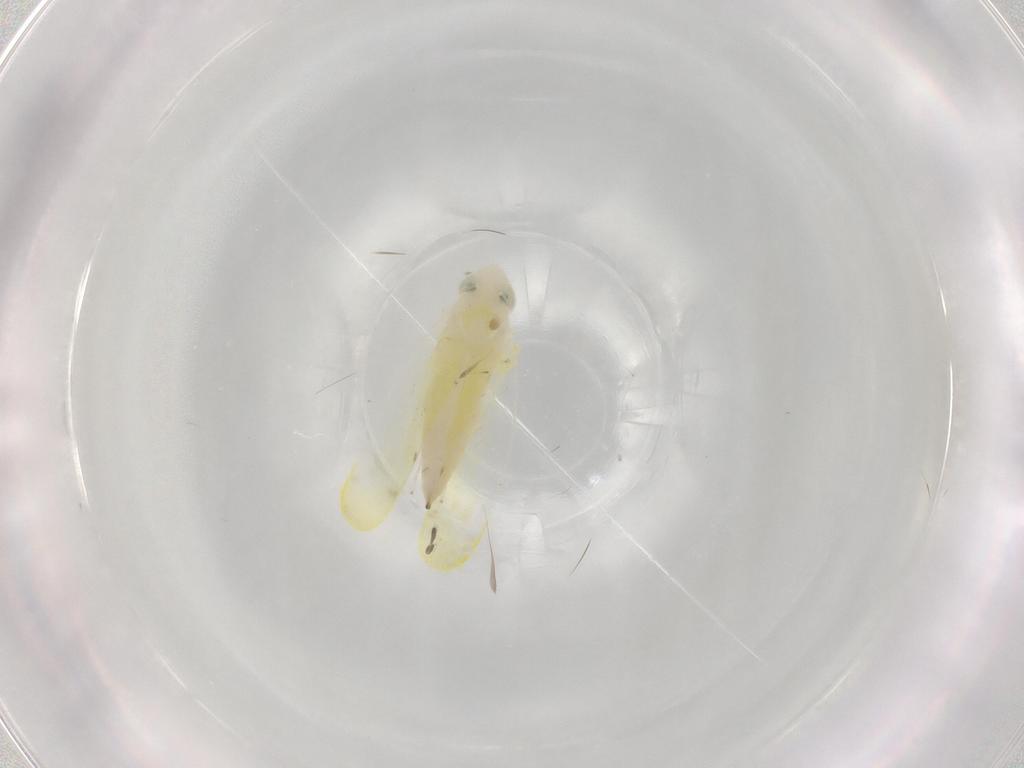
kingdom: Animalia
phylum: Arthropoda
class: Insecta
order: Hemiptera
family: Cicadellidae
